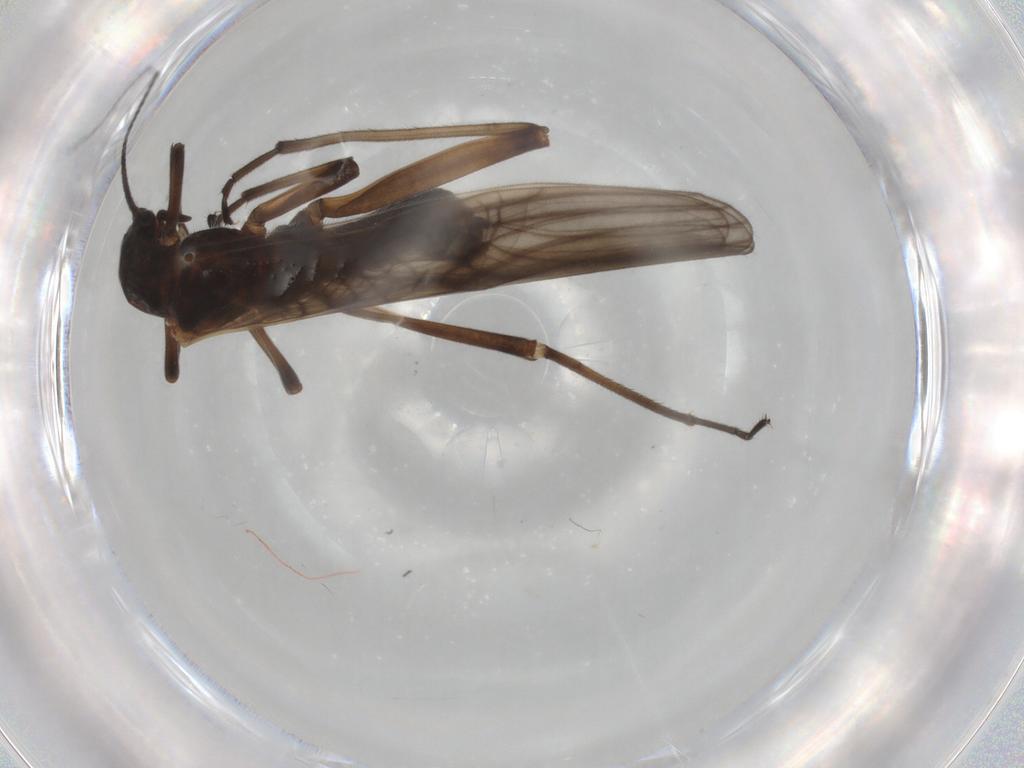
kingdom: Animalia
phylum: Arthropoda
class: Insecta
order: Plecoptera
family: Notonemouridae
